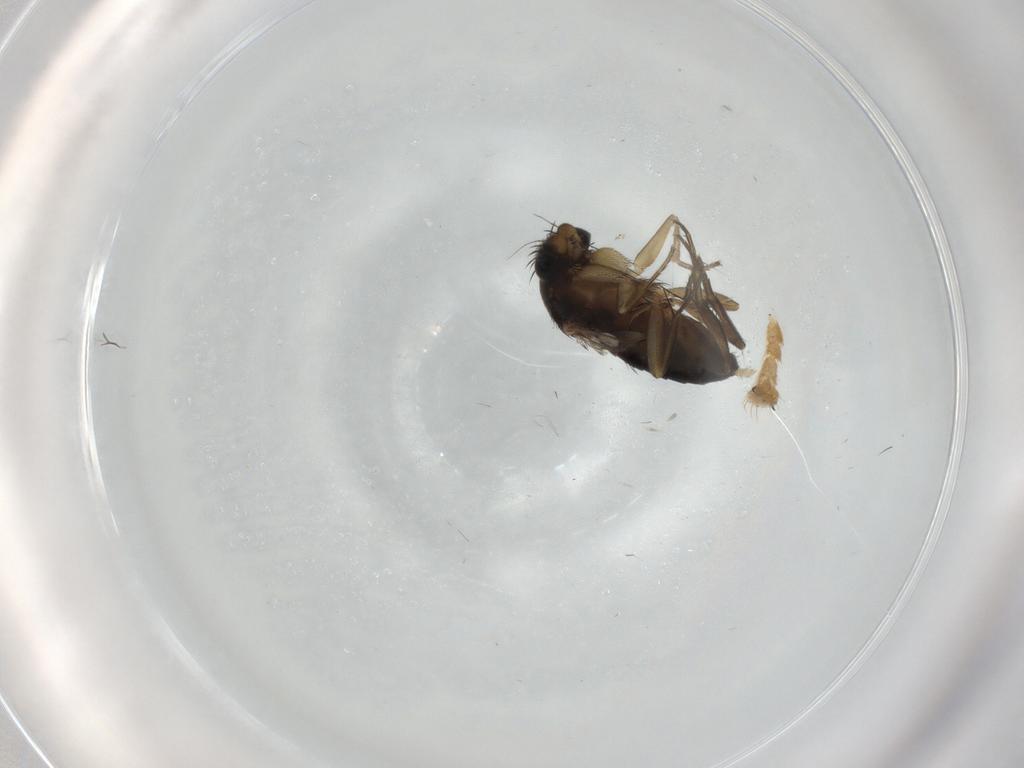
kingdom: Animalia
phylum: Arthropoda
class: Insecta
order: Diptera
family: Phoridae
